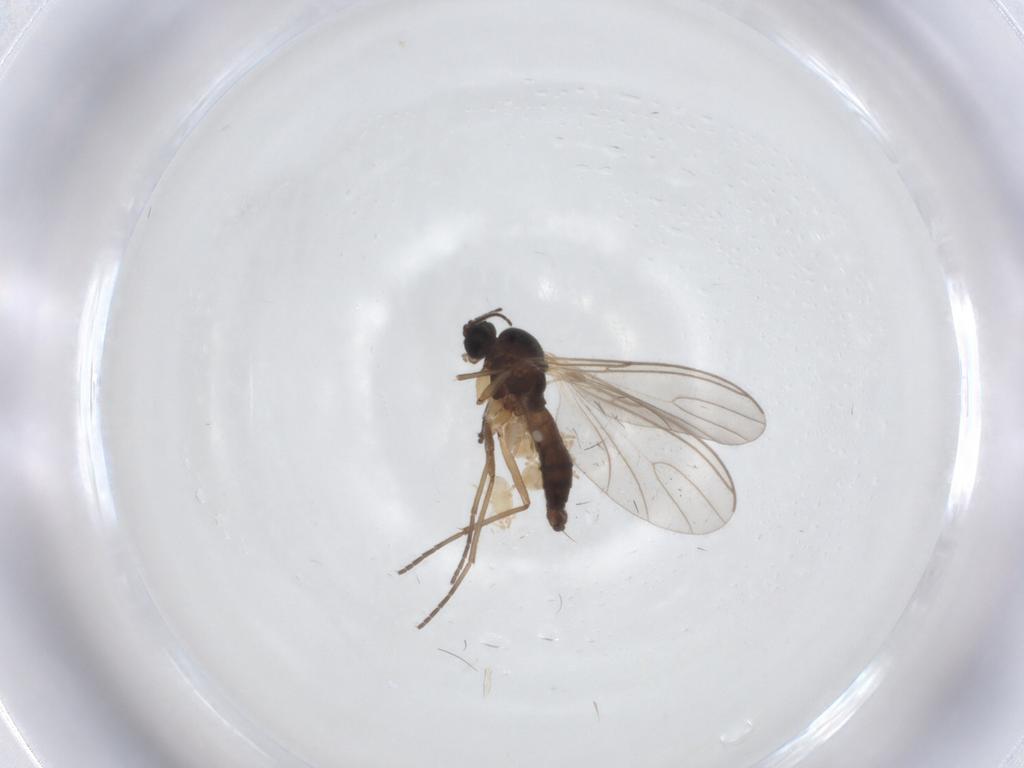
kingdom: Animalia
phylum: Arthropoda
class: Insecta
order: Diptera
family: Sciaridae
